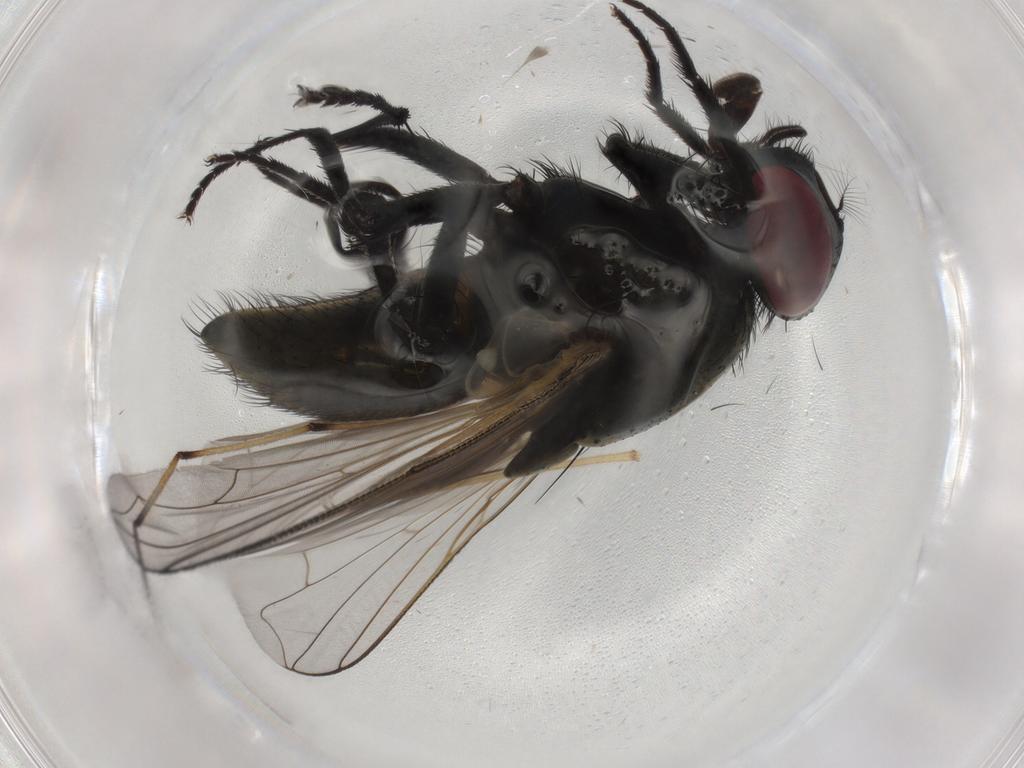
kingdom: Animalia
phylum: Arthropoda
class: Insecta
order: Diptera
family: Muscidae
